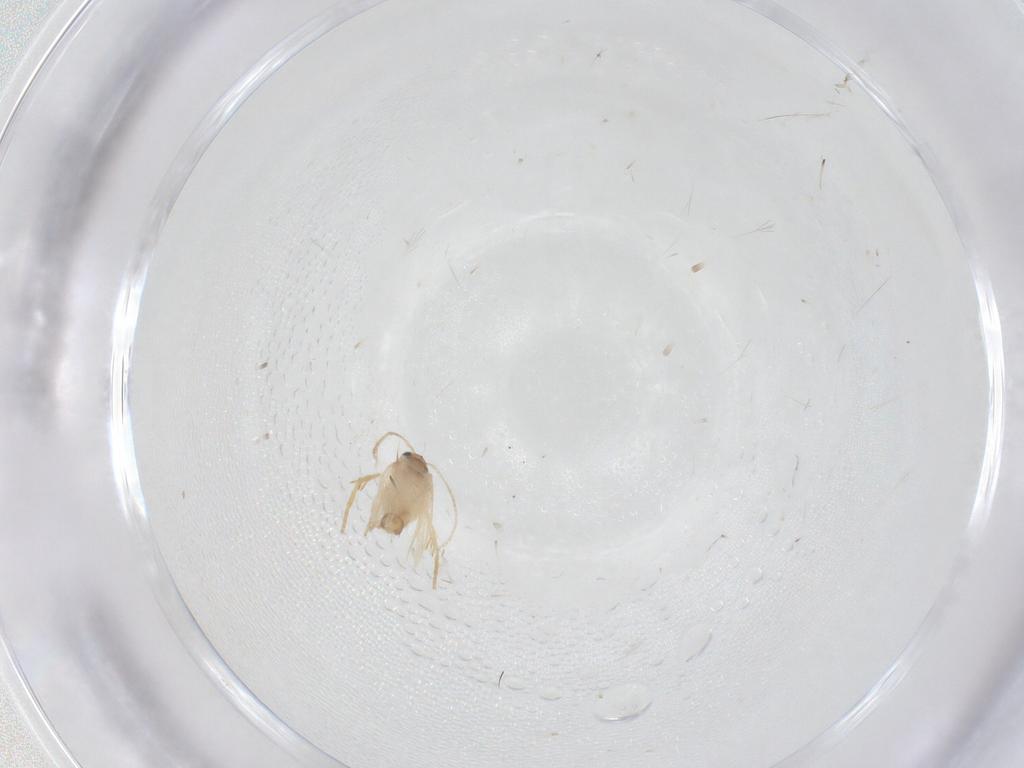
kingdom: Animalia
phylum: Arthropoda
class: Insecta
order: Lepidoptera
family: Nepticulidae
